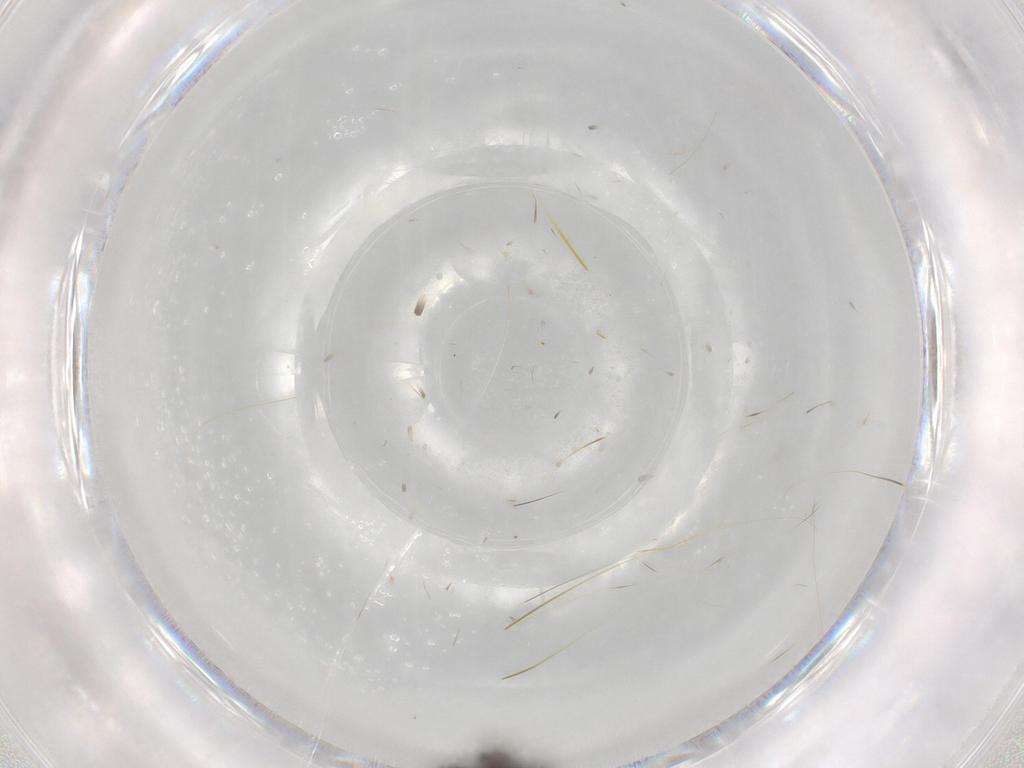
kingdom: Animalia
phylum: Arthropoda
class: Insecta
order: Coleoptera
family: Staphylinidae
